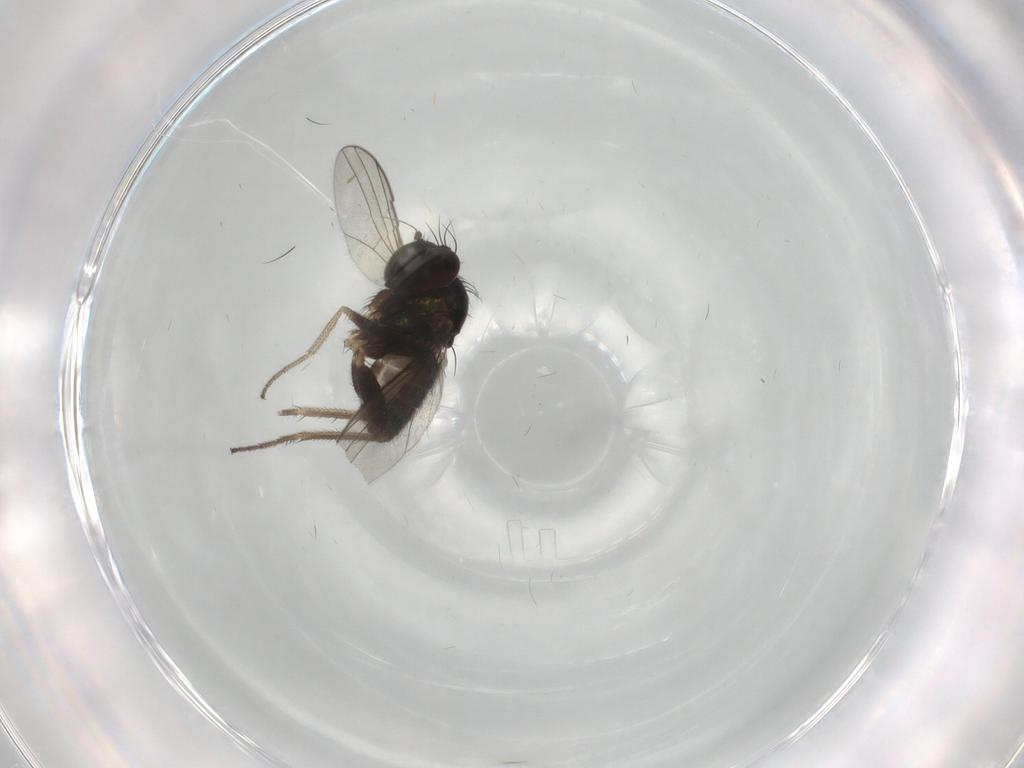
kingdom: Animalia
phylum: Arthropoda
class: Insecta
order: Diptera
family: Dolichopodidae
